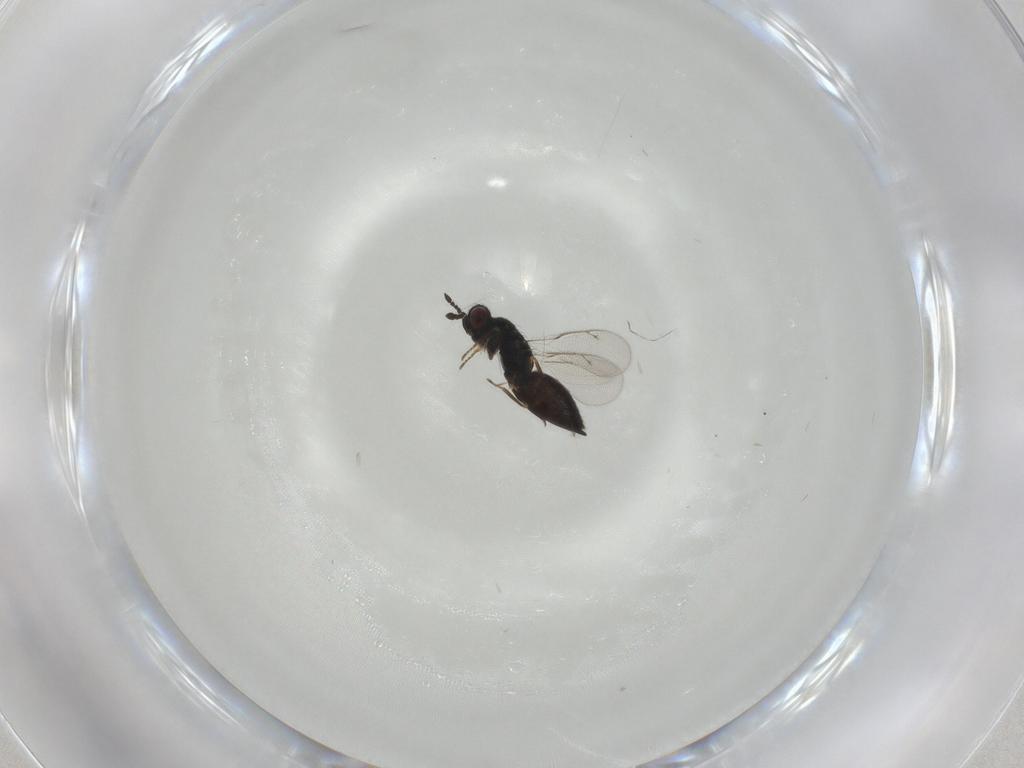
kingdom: Animalia
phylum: Arthropoda
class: Insecta
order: Hymenoptera
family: Eulophidae
